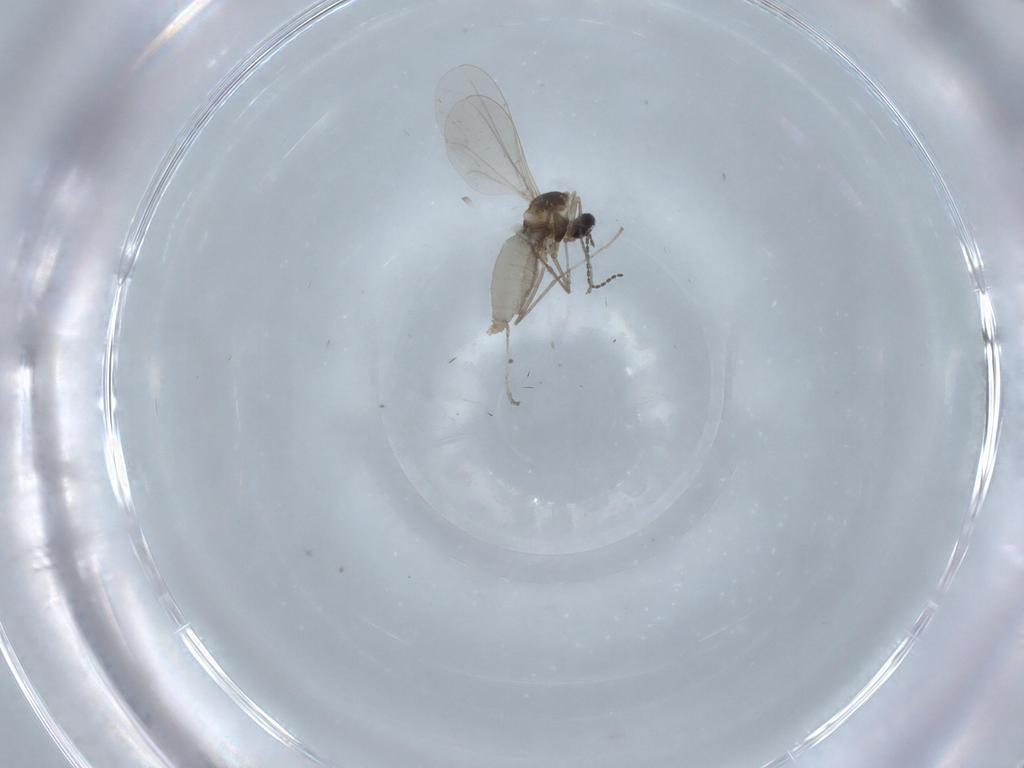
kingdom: Animalia
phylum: Arthropoda
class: Insecta
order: Diptera
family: Cecidomyiidae
